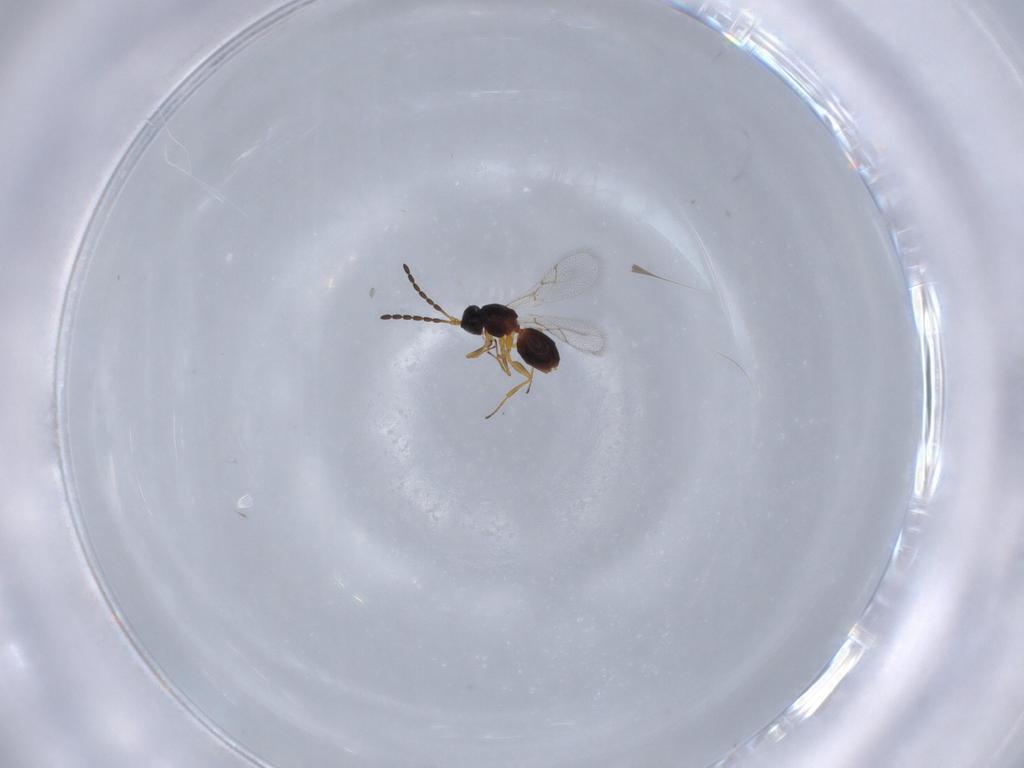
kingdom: Animalia
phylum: Arthropoda
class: Insecta
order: Hymenoptera
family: Figitidae
